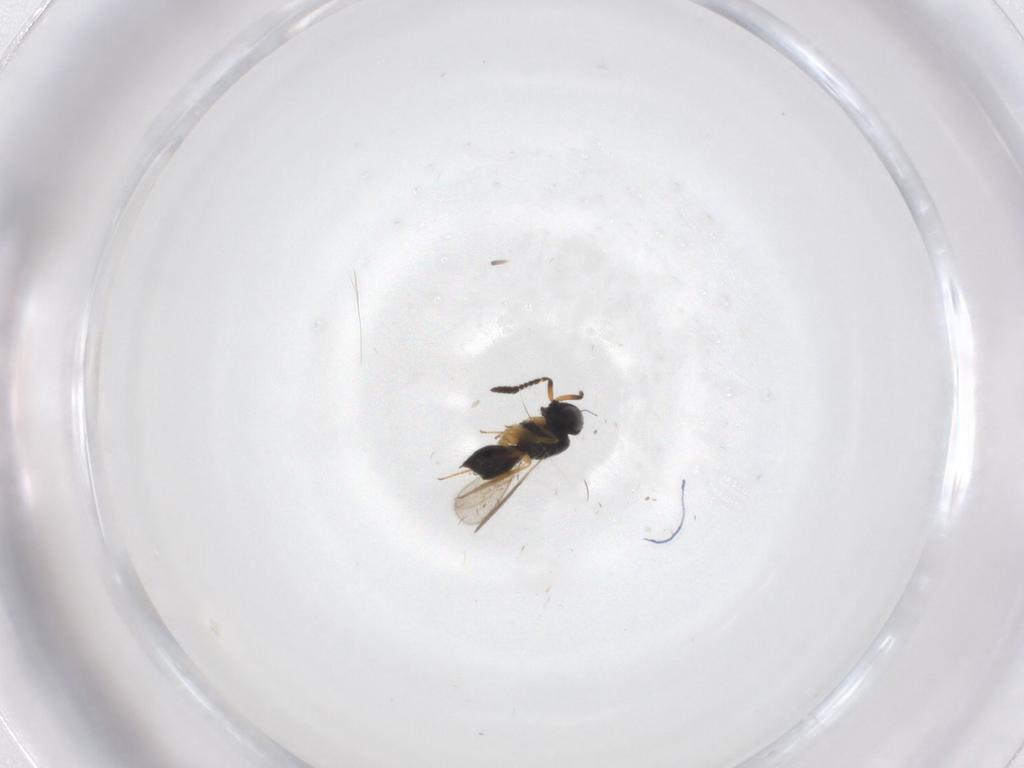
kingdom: Animalia
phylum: Arthropoda
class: Insecta
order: Hymenoptera
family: Scelionidae
